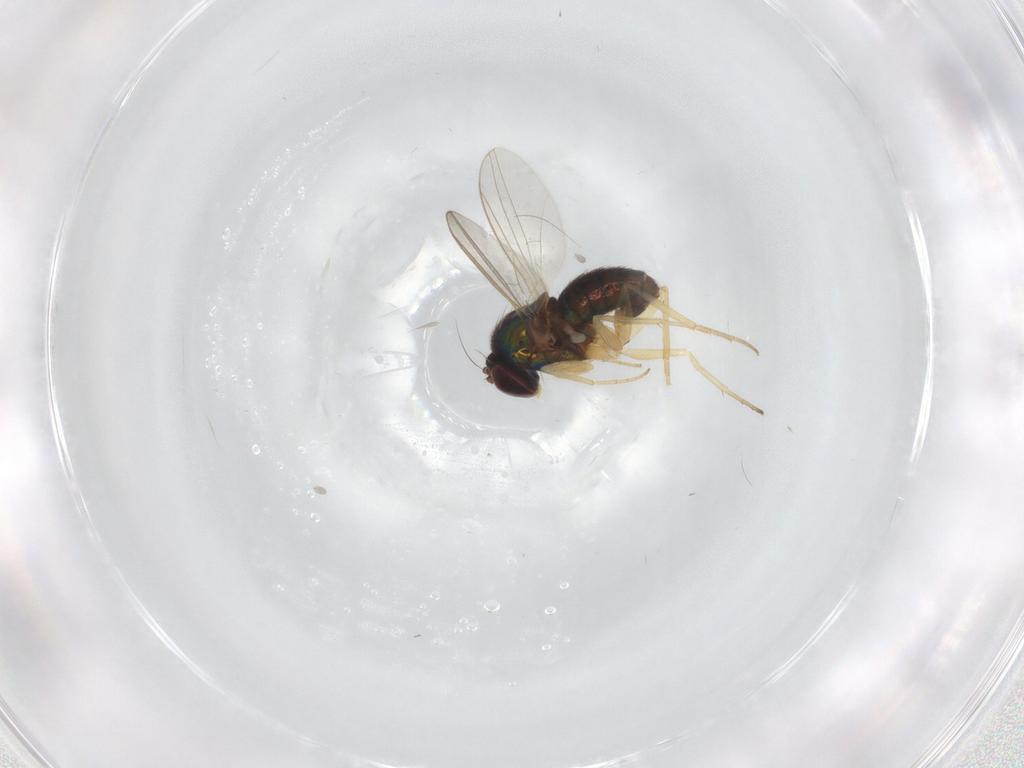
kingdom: Animalia
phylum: Arthropoda
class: Insecta
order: Diptera
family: Dolichopodidae
